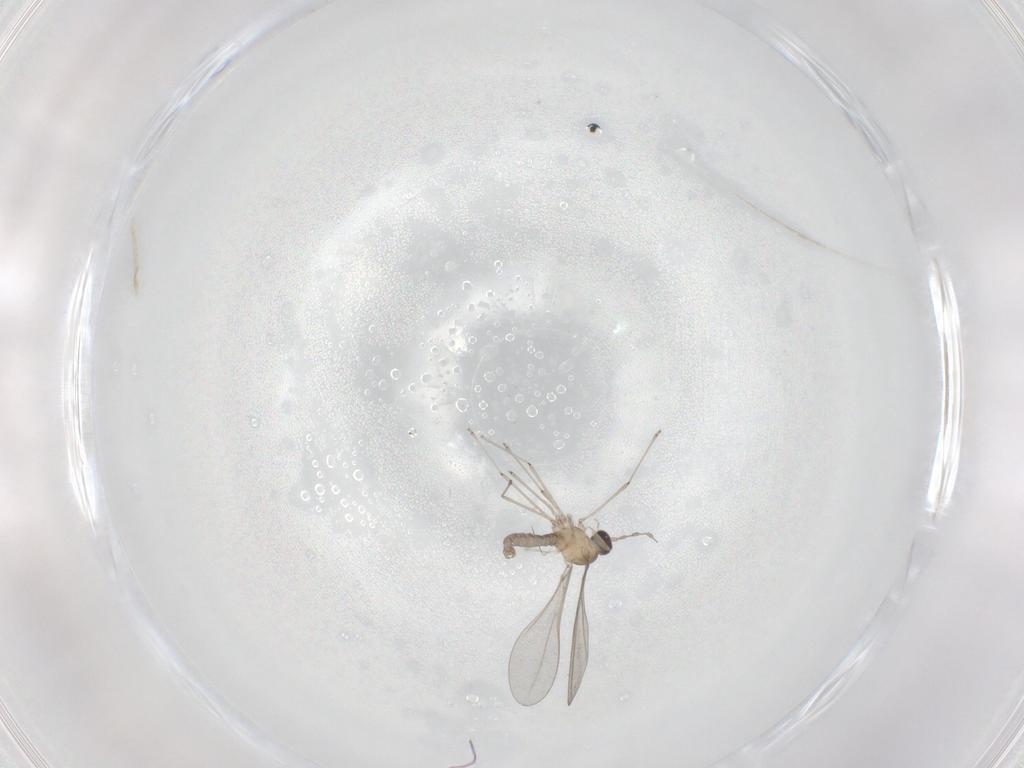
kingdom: Animalia
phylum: Arthropoda
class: Insecta
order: Diptera
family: Cecidomyiidae
